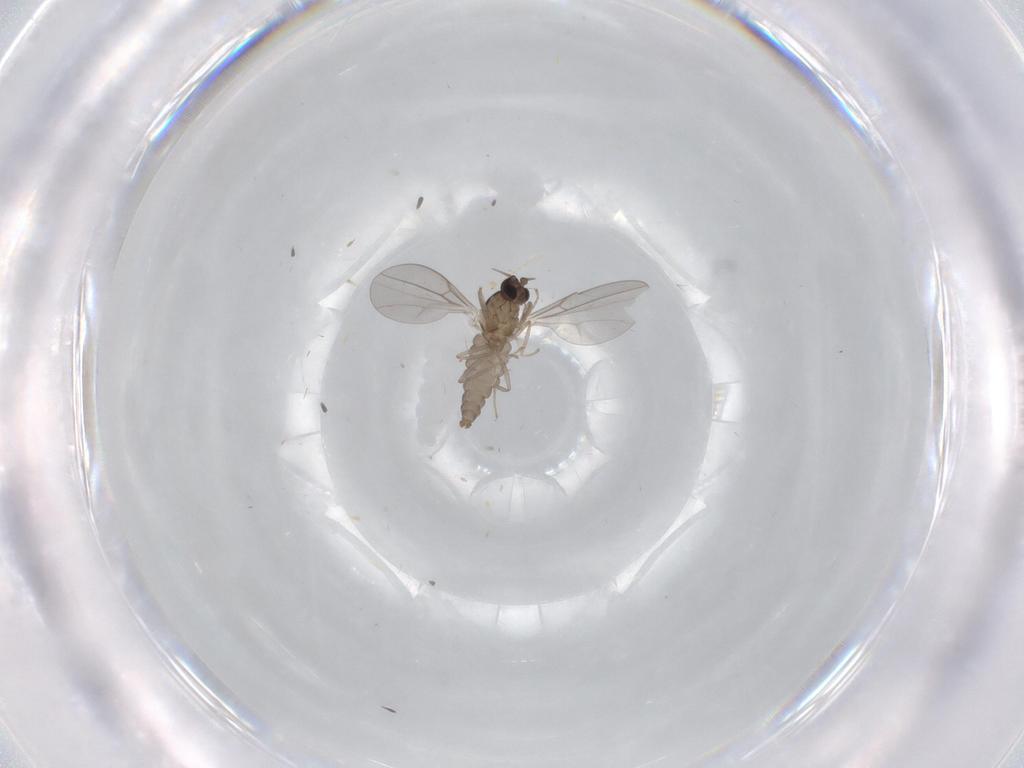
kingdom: Animalia
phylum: Arthropoda
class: Insecta
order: Diptera
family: Cecidomyiidae
